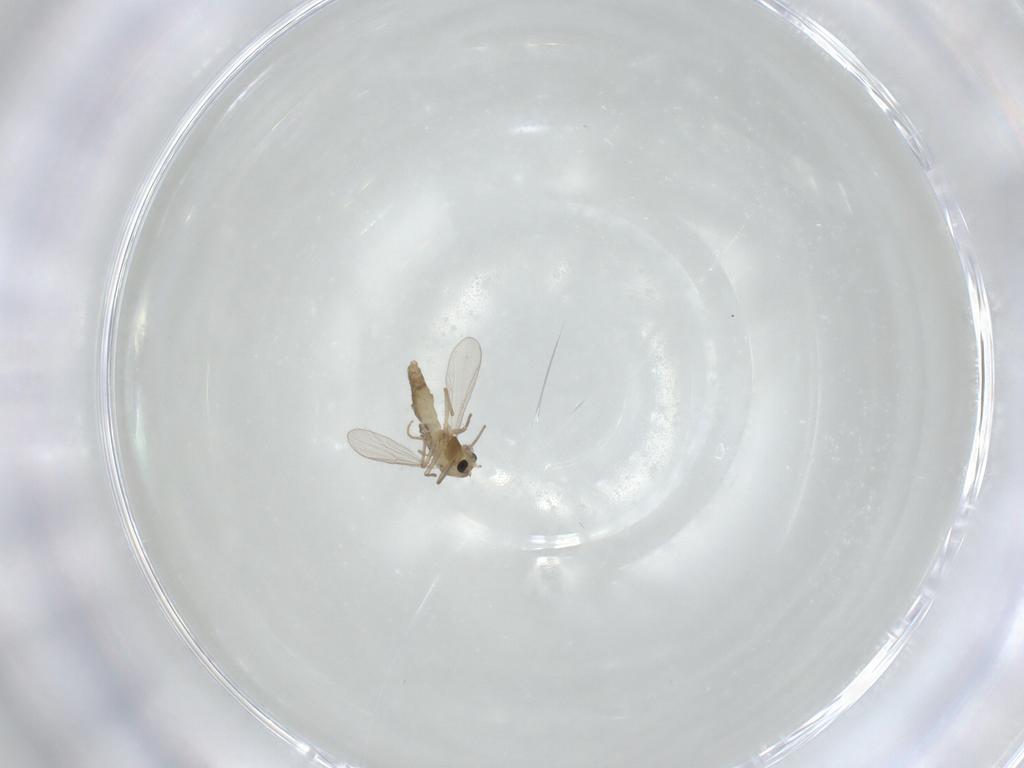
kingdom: Animalia
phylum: Arthropoda
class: Insecta
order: Diptera
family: Chironomidae
